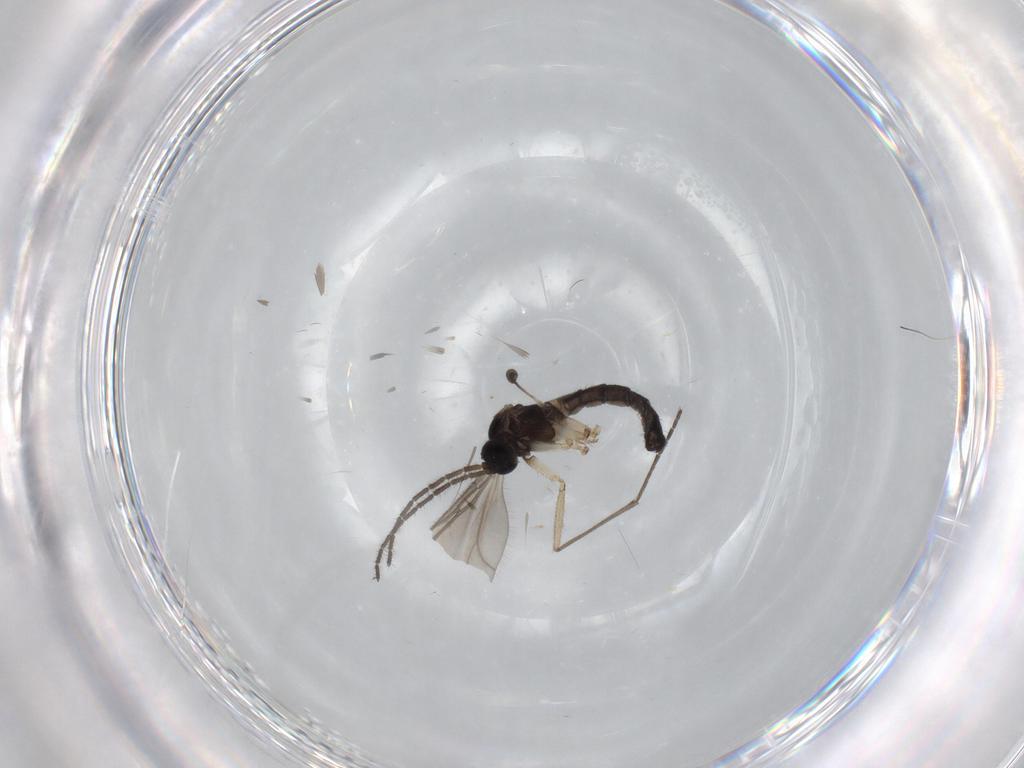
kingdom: Animalia
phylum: Arthropoda
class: Insecta
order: Diptera
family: Sciaridae
